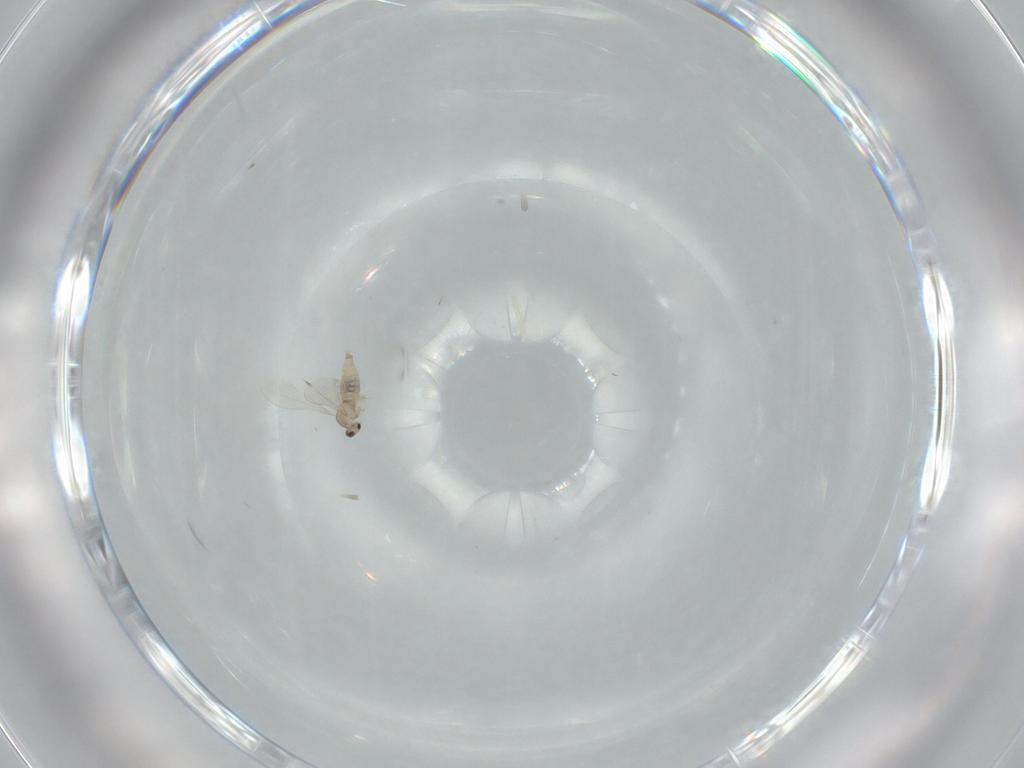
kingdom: Animalia
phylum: Arthropoda
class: Insecta
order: Diptera
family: Cecidomyiidae
